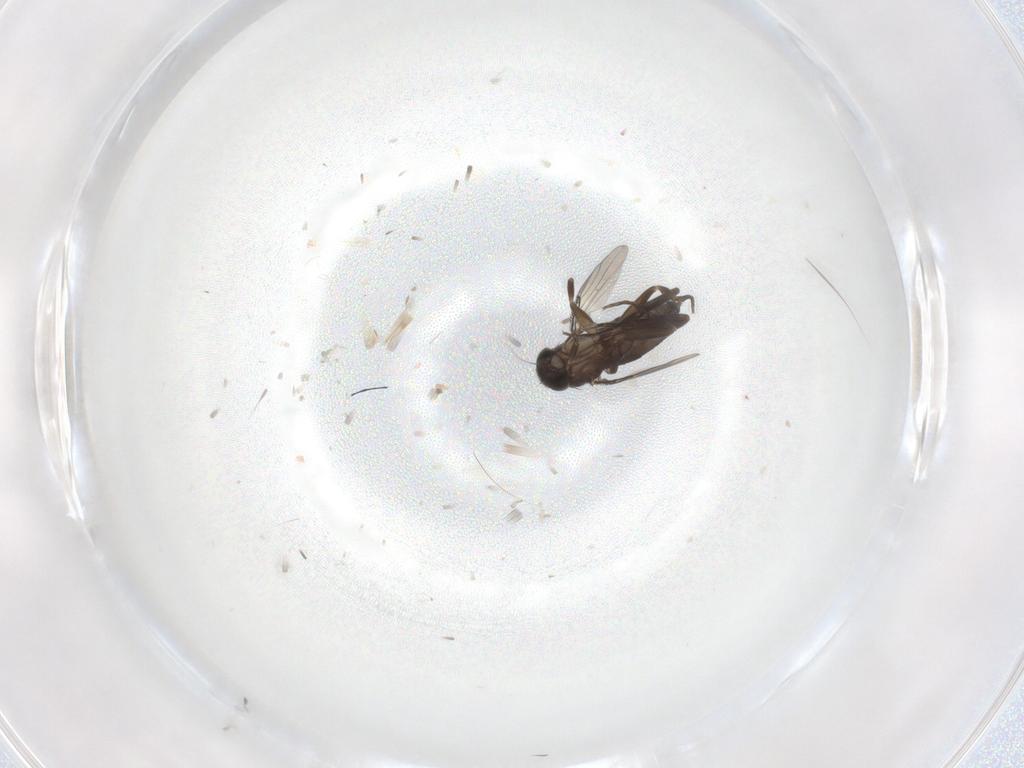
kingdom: Animalia
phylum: Arthropoda
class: Insecta
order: Diptera
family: Phoridae
